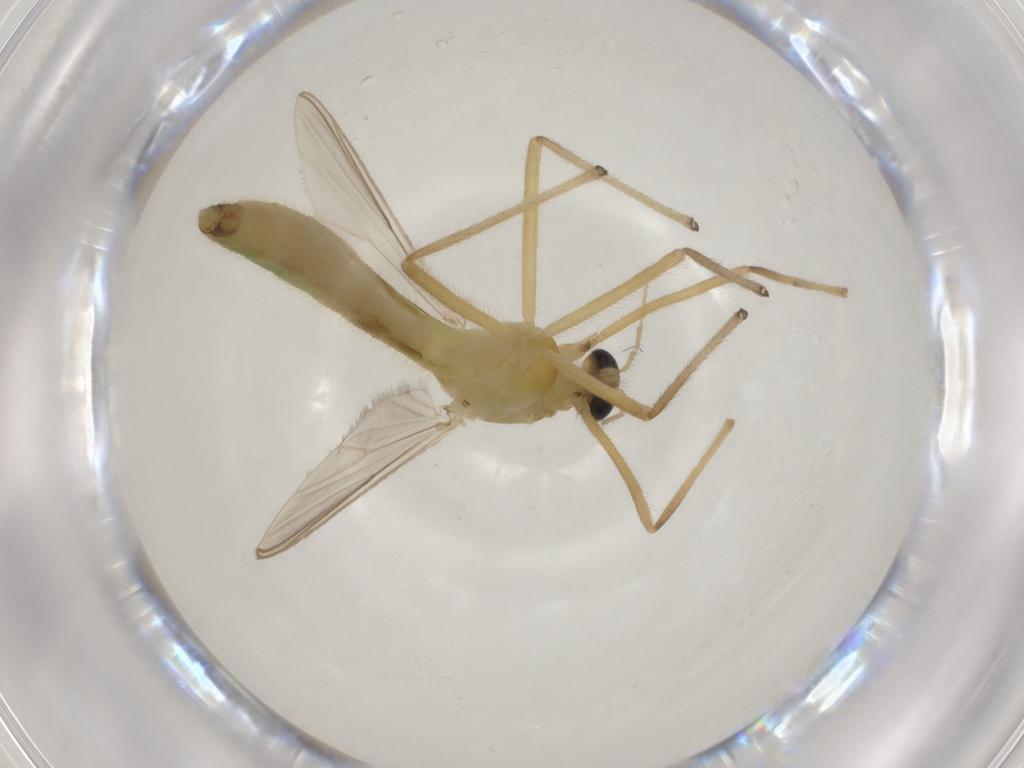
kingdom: Animalia
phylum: Arthropoda
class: Insecta
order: Diptera
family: Chironomidae
